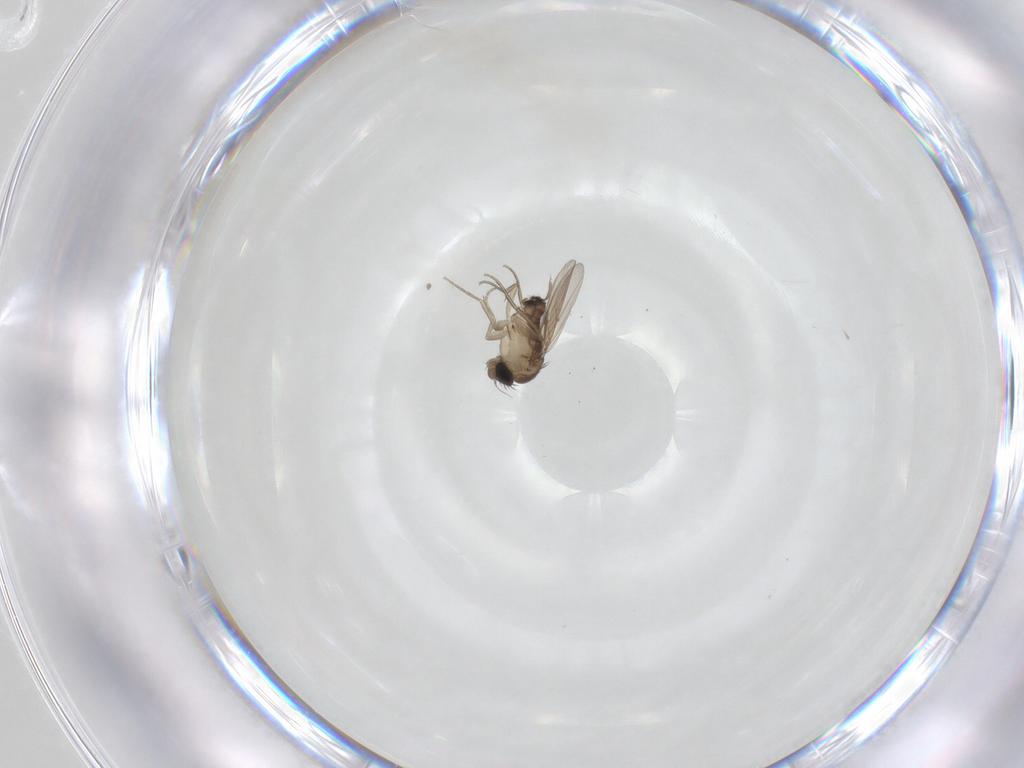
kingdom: Animalia
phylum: Arthropoda
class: Insecta
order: Diptera
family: Phoridae
